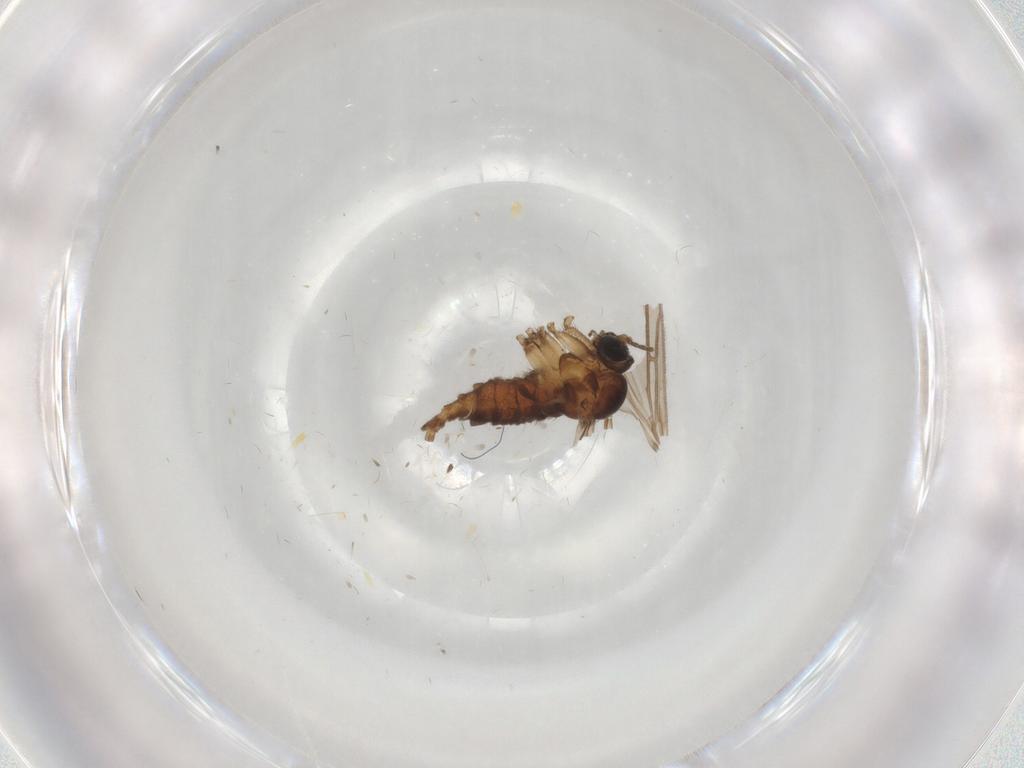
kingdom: Animalia
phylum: Arthropoda
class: Insecta
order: Diptera
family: Sciaridae
